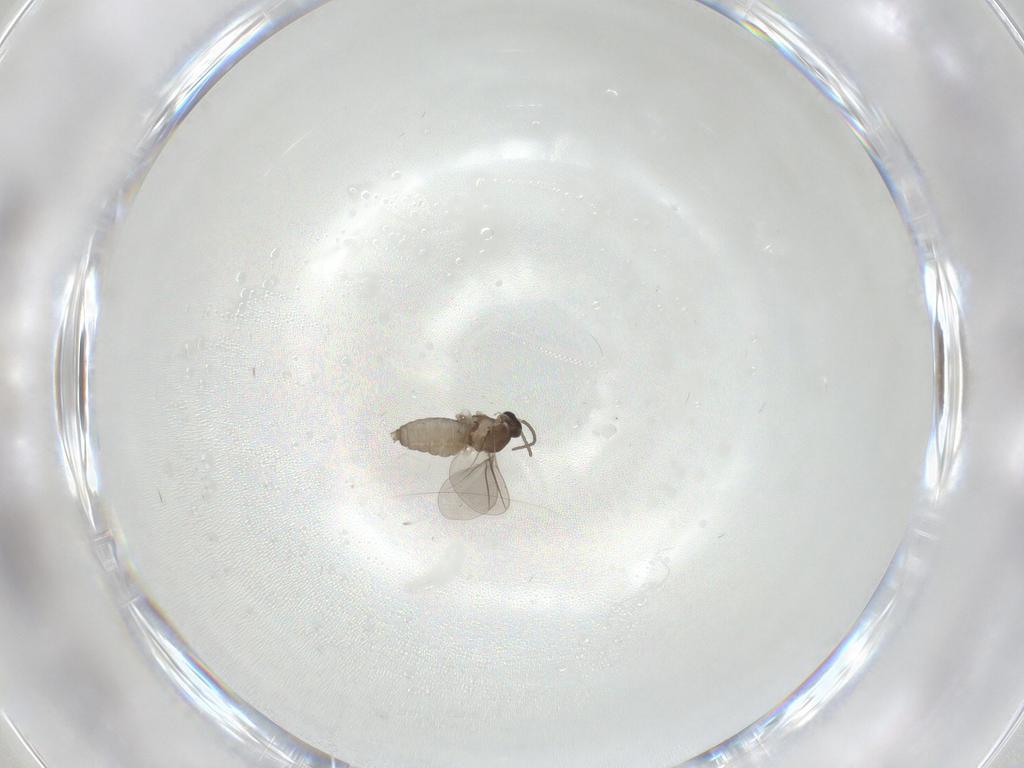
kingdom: Animalia
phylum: Arthropoda
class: Insecta
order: Diptera
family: Cecidomyiidae
